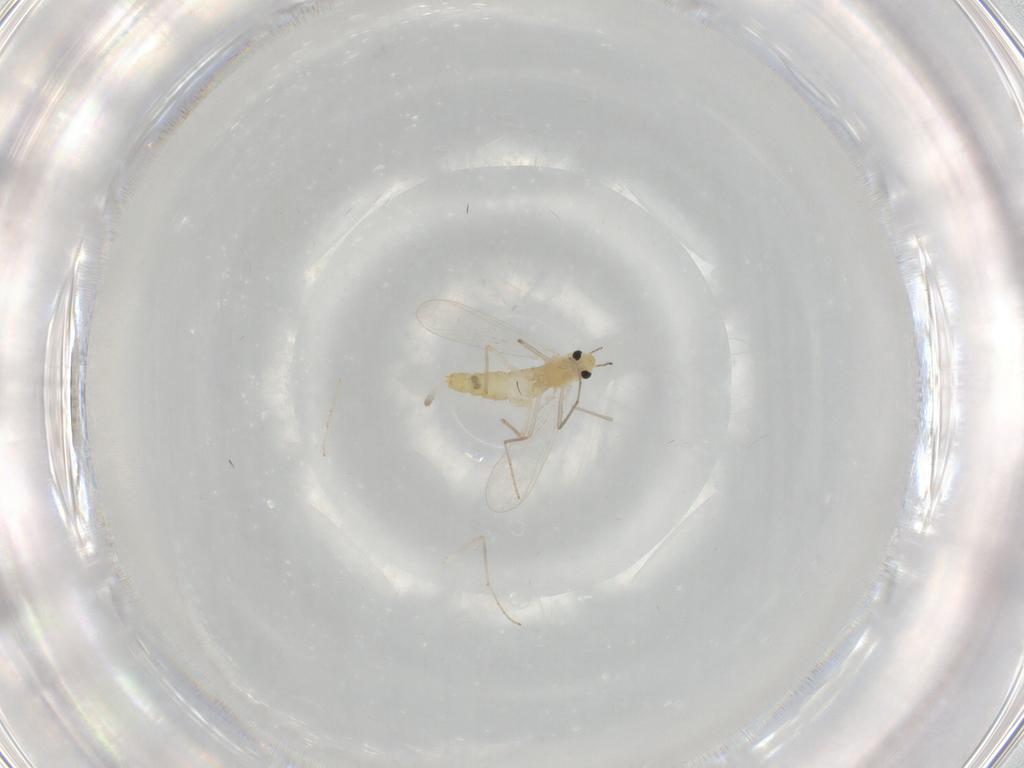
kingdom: Animalia
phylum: Arthropoda
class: Insecta
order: Diptera
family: Chironomidae
